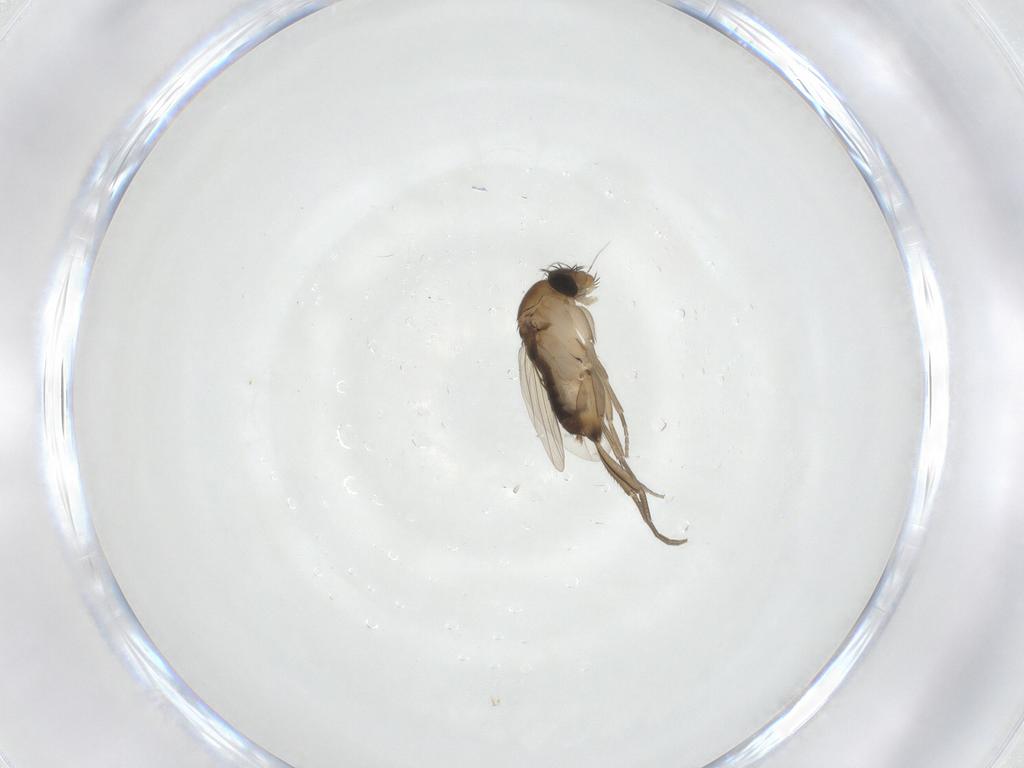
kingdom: Animalia
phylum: Arthropoda
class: Insecta
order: Diptera
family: Phoridae
